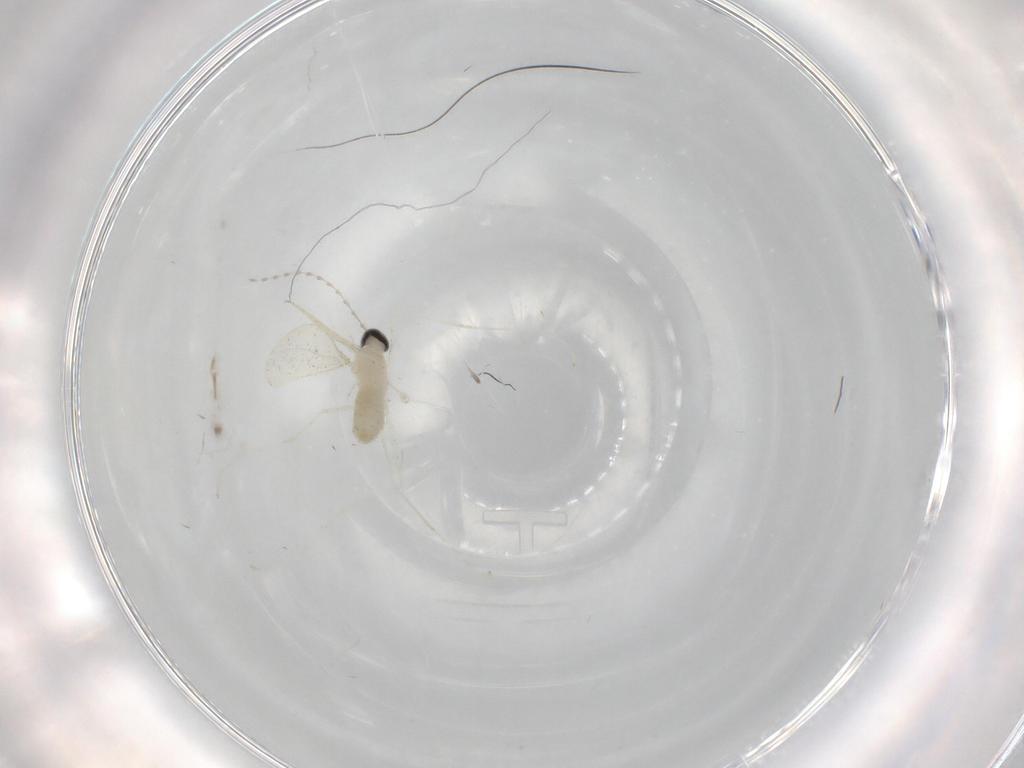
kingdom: Animalia
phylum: Arthropoda
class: Insecta
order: Diptera
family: Cecidomyiidae
